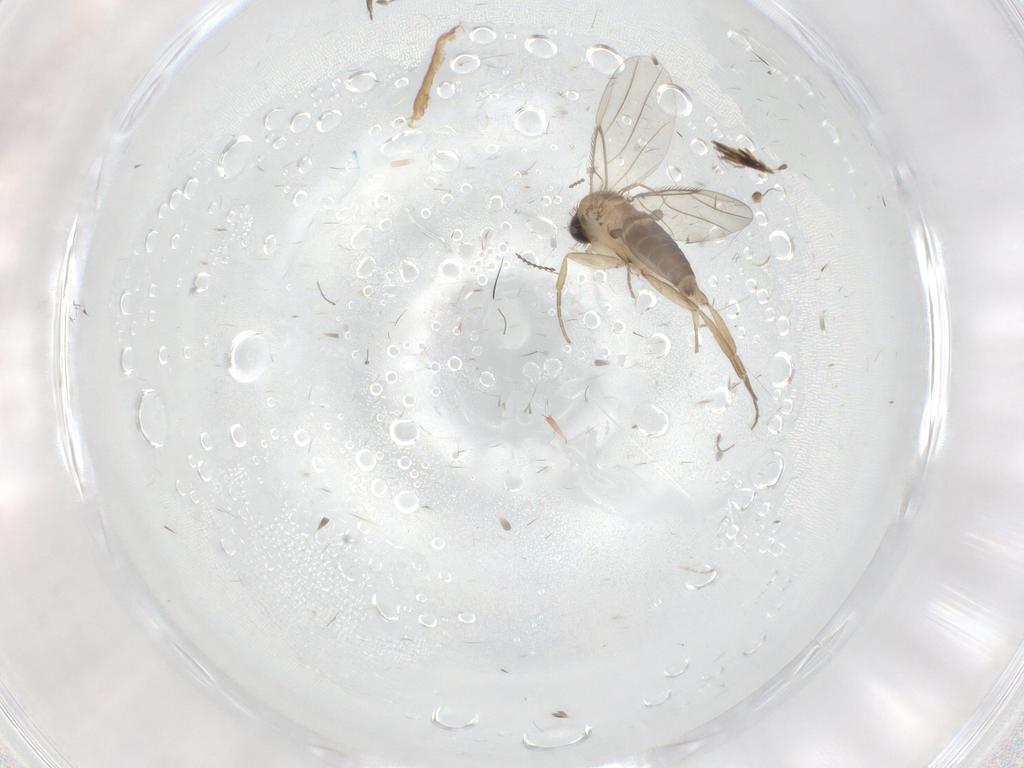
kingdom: Animalia
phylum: Arthropoda
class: Insecta
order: Diptera
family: Phoridae
